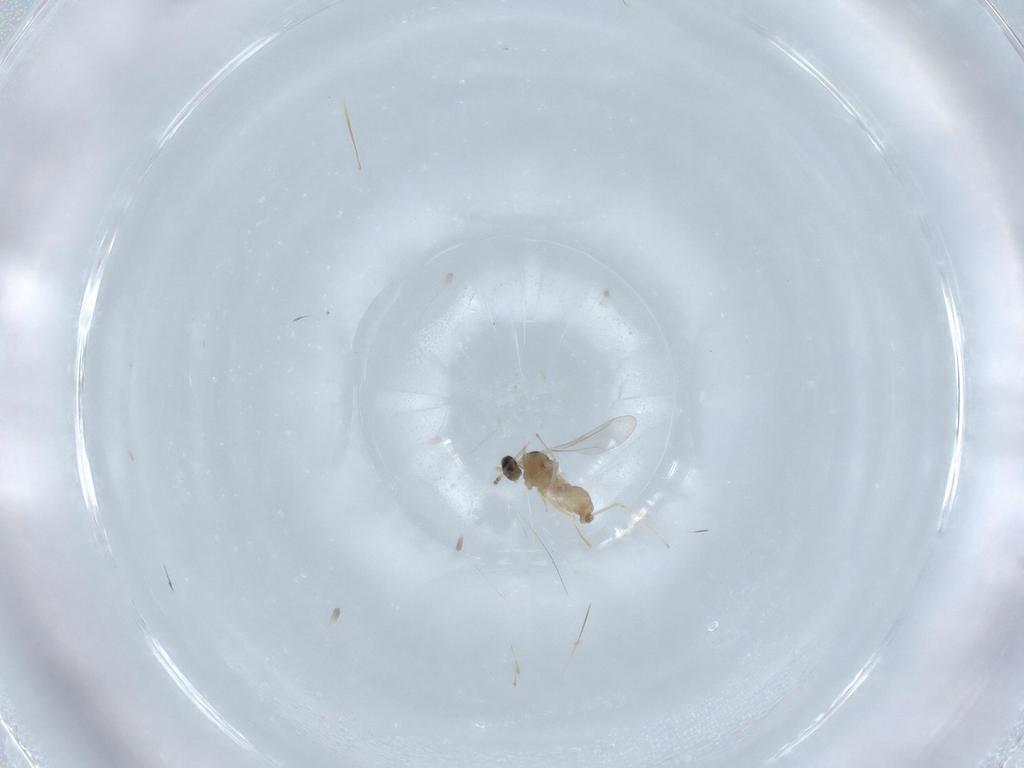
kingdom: Animalia
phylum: Arthropoda
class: Insecta
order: Diptera
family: Cecidomyiidae
